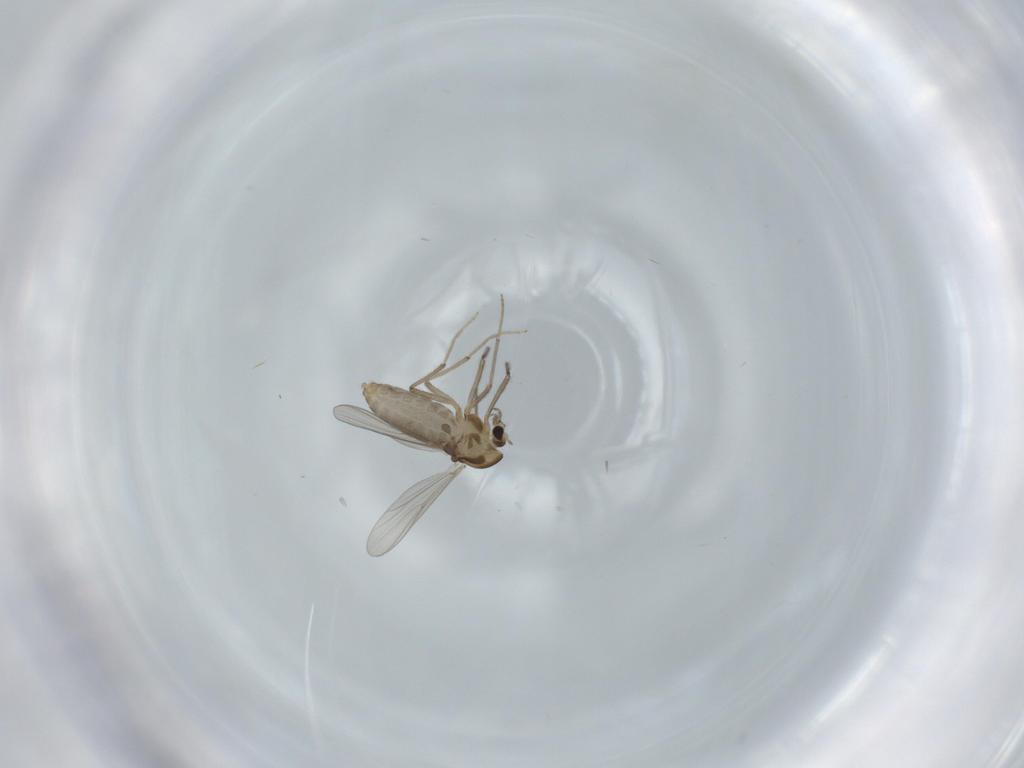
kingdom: Animalia
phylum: Arthropoda
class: Insecta
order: Diptera
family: Chironomidae
